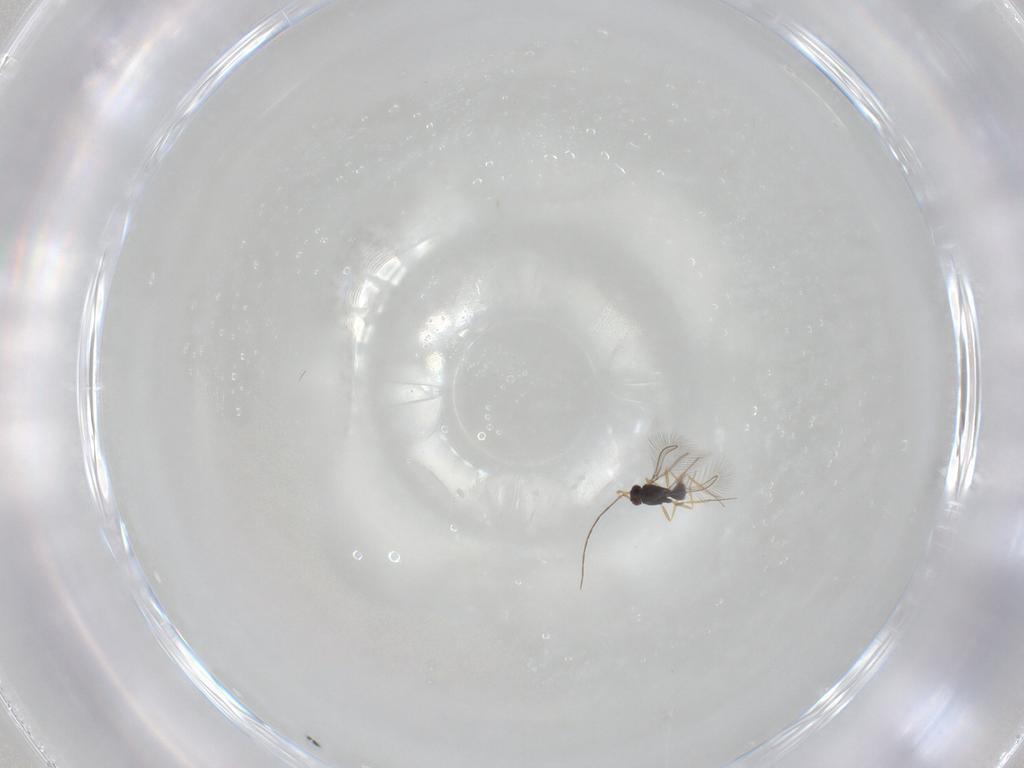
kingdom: Animalia
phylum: Arthropoda
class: Insecta
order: Hymenoptera
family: Mymaridae
